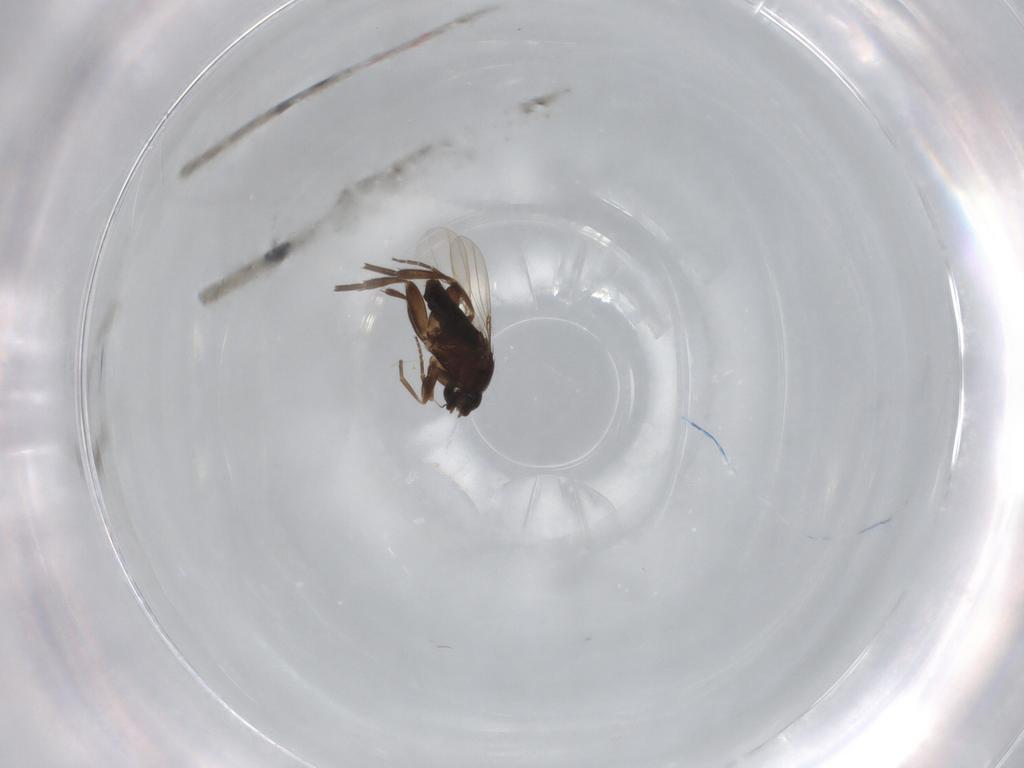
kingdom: Animalia
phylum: Arthropoda
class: Insecta
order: Diptera
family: Phoridae
